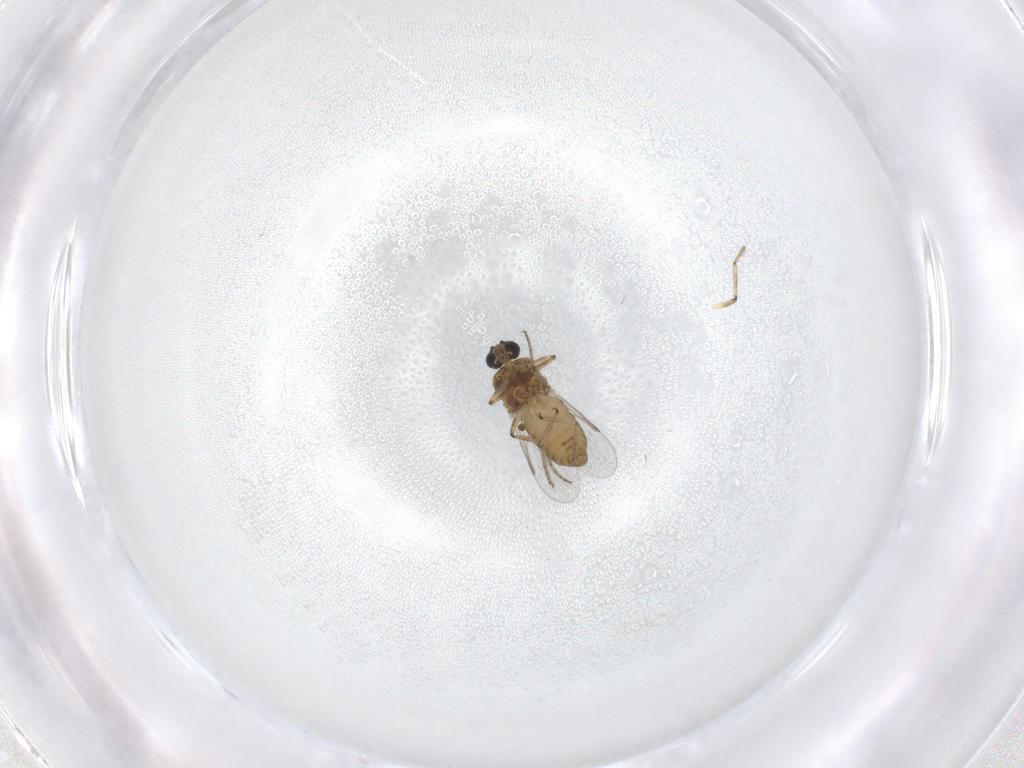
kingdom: Animalia
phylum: Arthropoda
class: Insecta
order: Diptera
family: Ceratopogonidae
